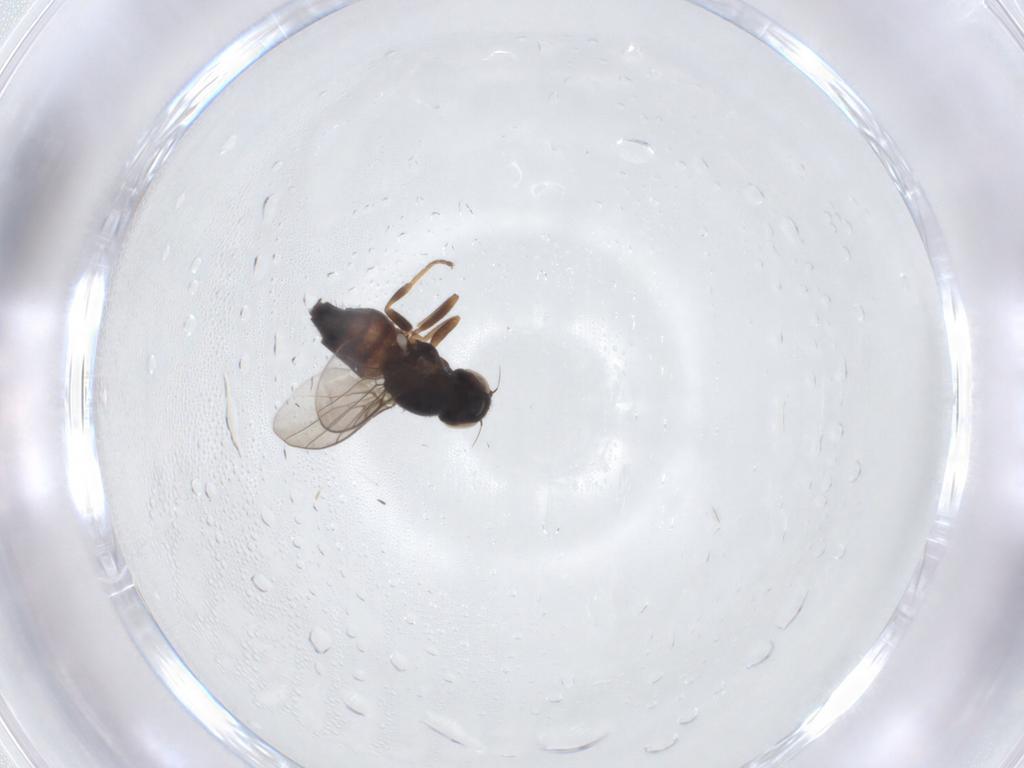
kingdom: Animalia
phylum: Arthropoda
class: Insecta
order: Diptera
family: Chloropidae
